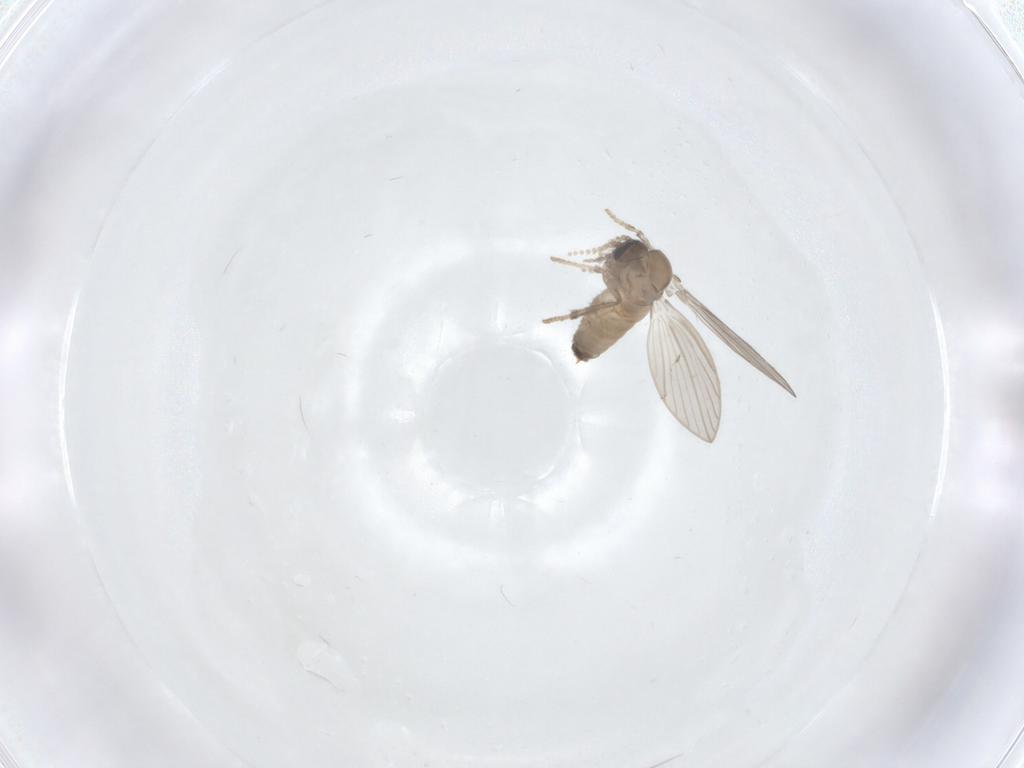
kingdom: Animalia
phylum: Arthropoda
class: Insecta
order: Diptera
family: Psychodidae
